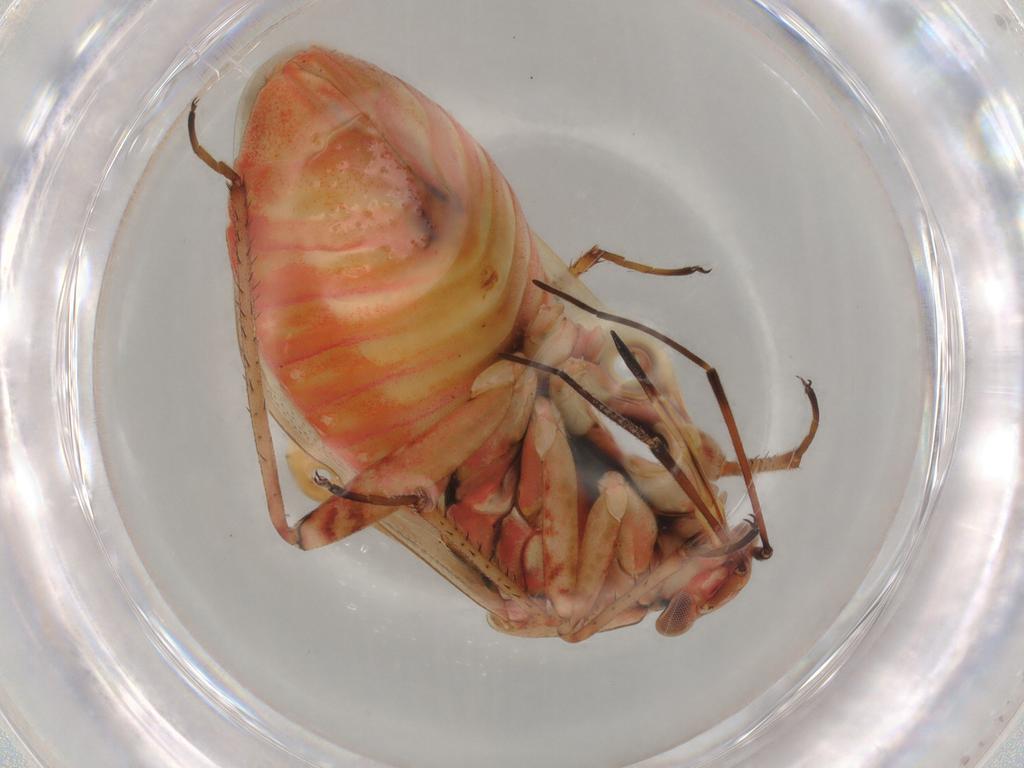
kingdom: Animalia
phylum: Arthropoda
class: Insecta
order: Hemiptera
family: Miridae
